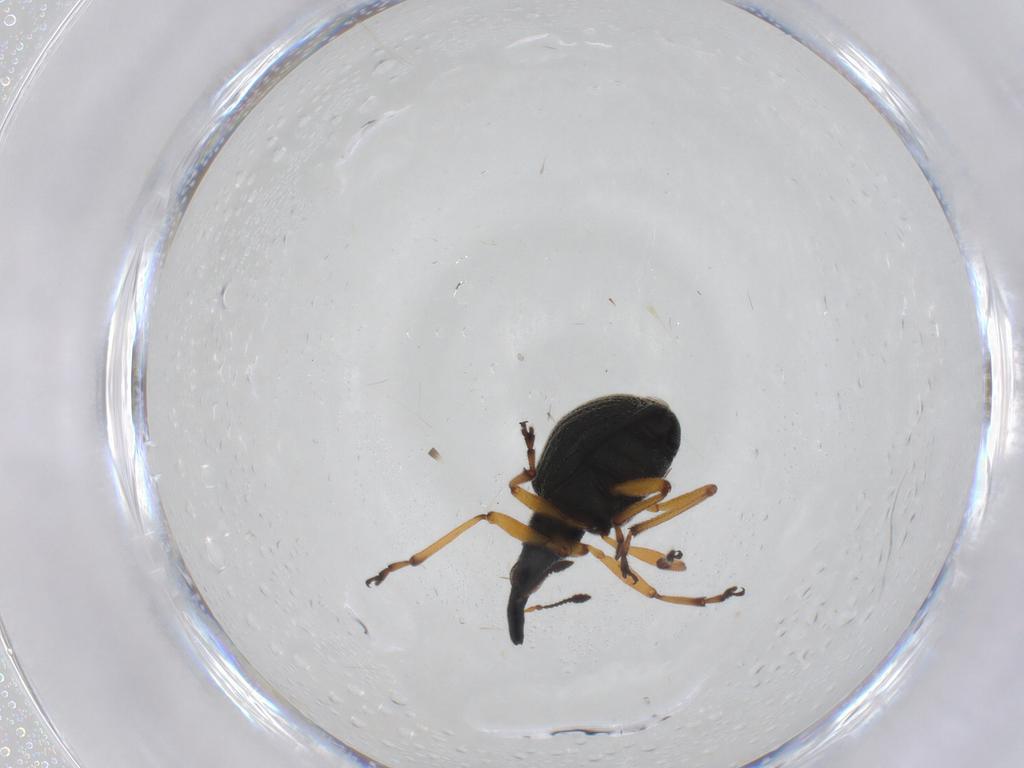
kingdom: Animalia
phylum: Arthropoda
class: Insecta
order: Coleoptera
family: Brentidae
